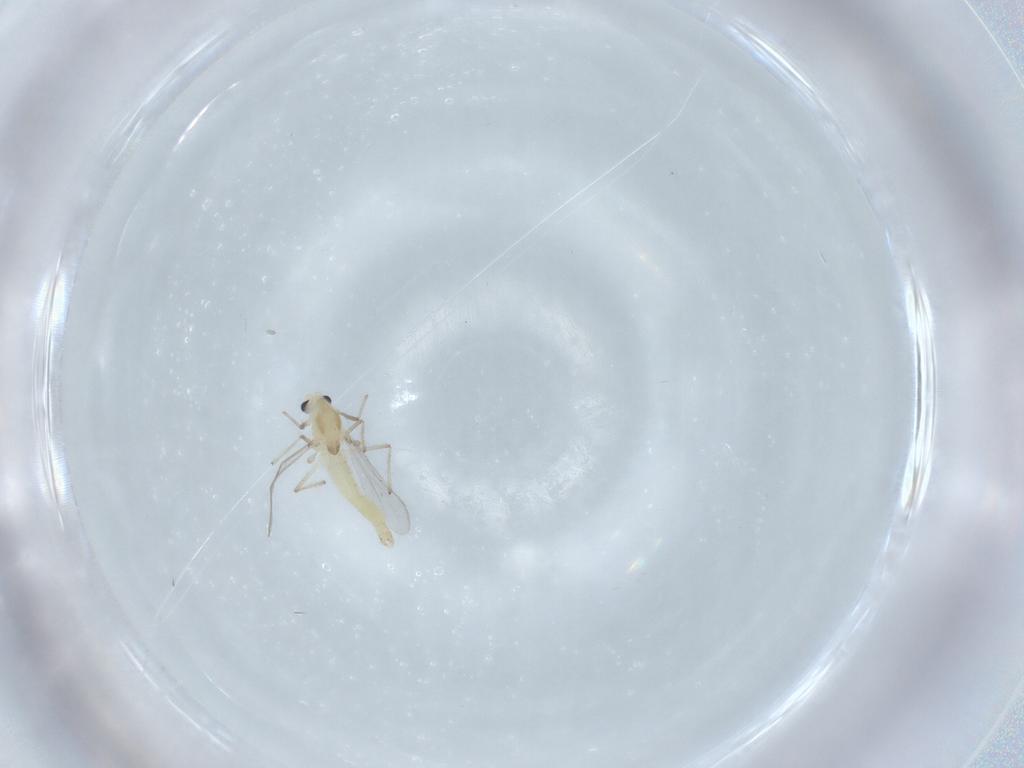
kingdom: Animalia
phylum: Arthropoda
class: Insecta
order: Diptera
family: Chironomidae
